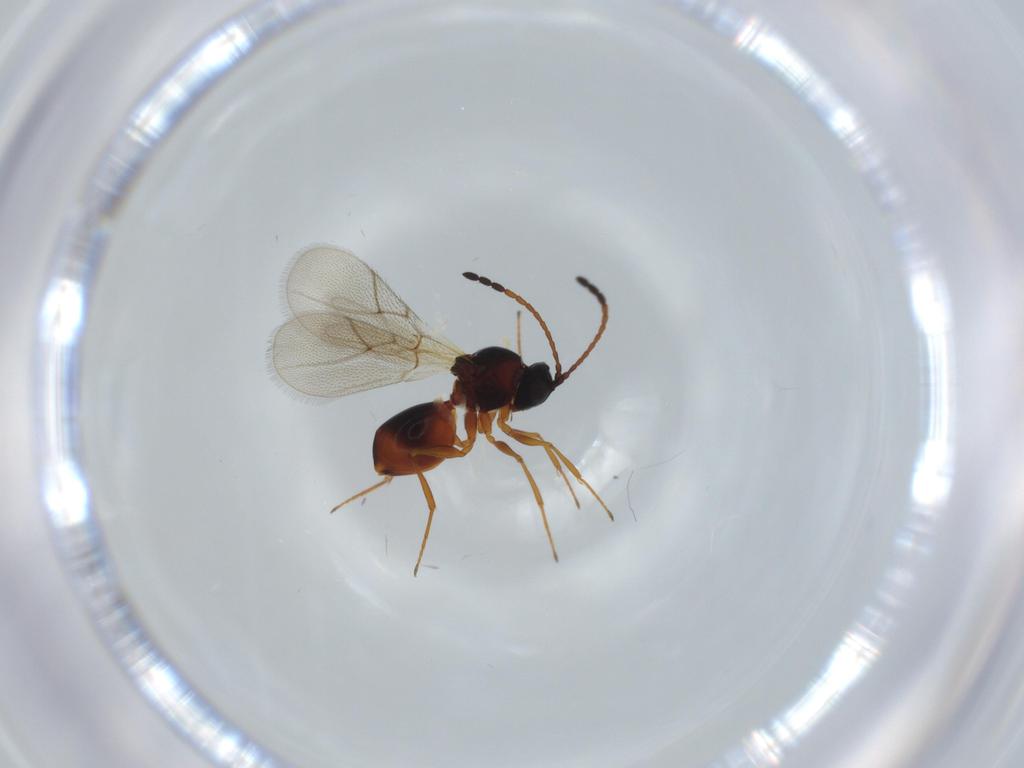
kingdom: Animalia
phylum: Arthropoda
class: Insecta
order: Hymenoptera
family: Figitidae
